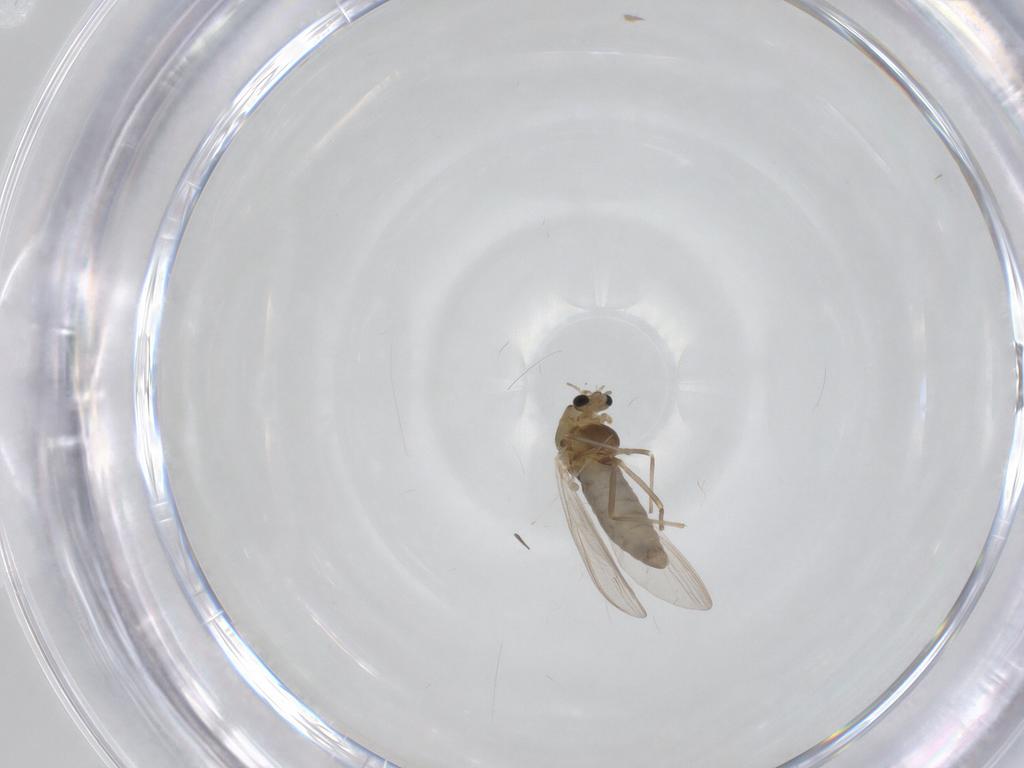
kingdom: Animalia
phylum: Arthropoda
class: Insecta
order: Diptera
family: Chironomidae
